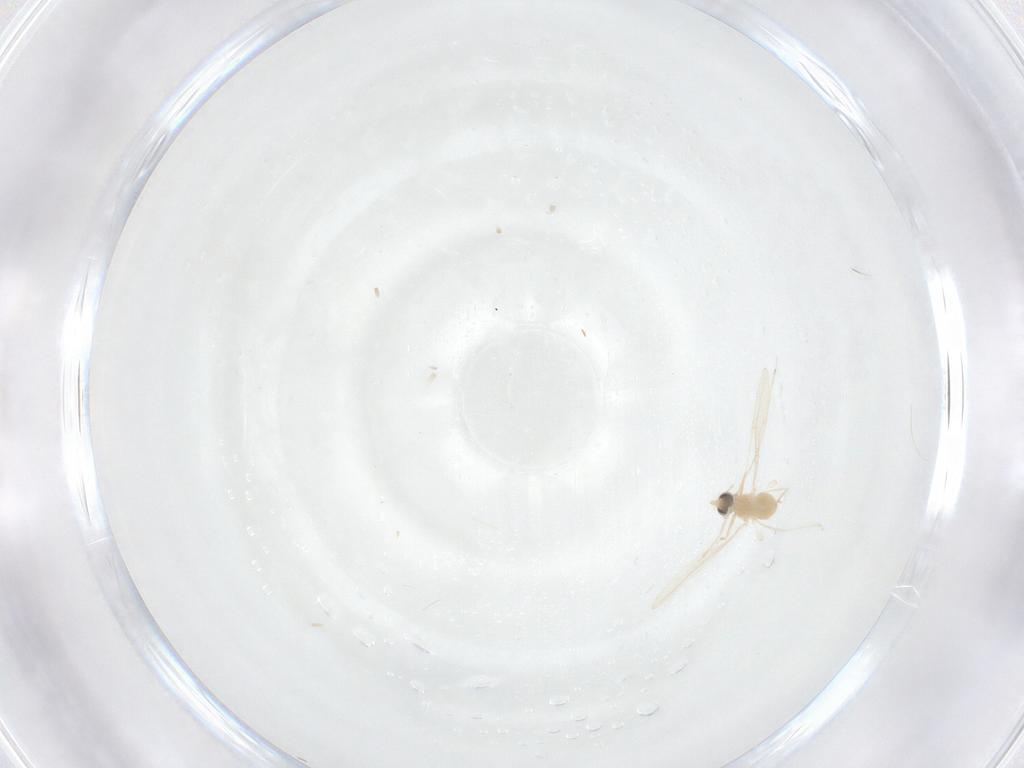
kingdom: Animalia
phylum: Arthropoda
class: Insecta
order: Diptera
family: Cecidomyiidae
